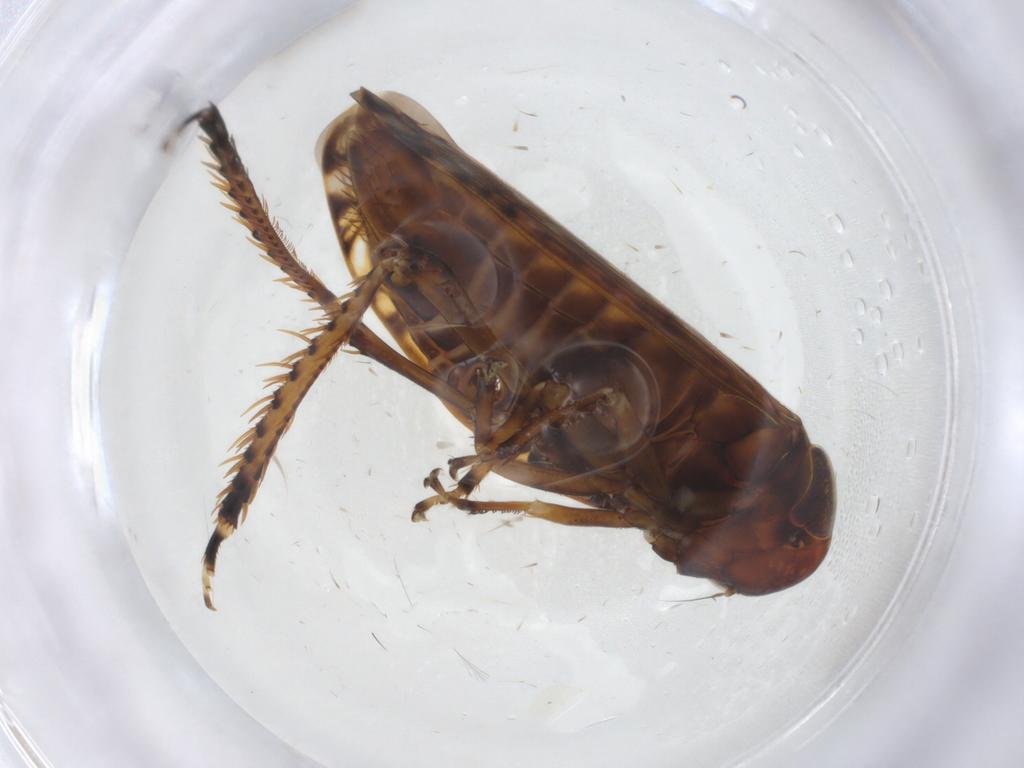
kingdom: Animalia
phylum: Arthropoda
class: Insecta
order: Hemiptera
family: Cicadellidae
